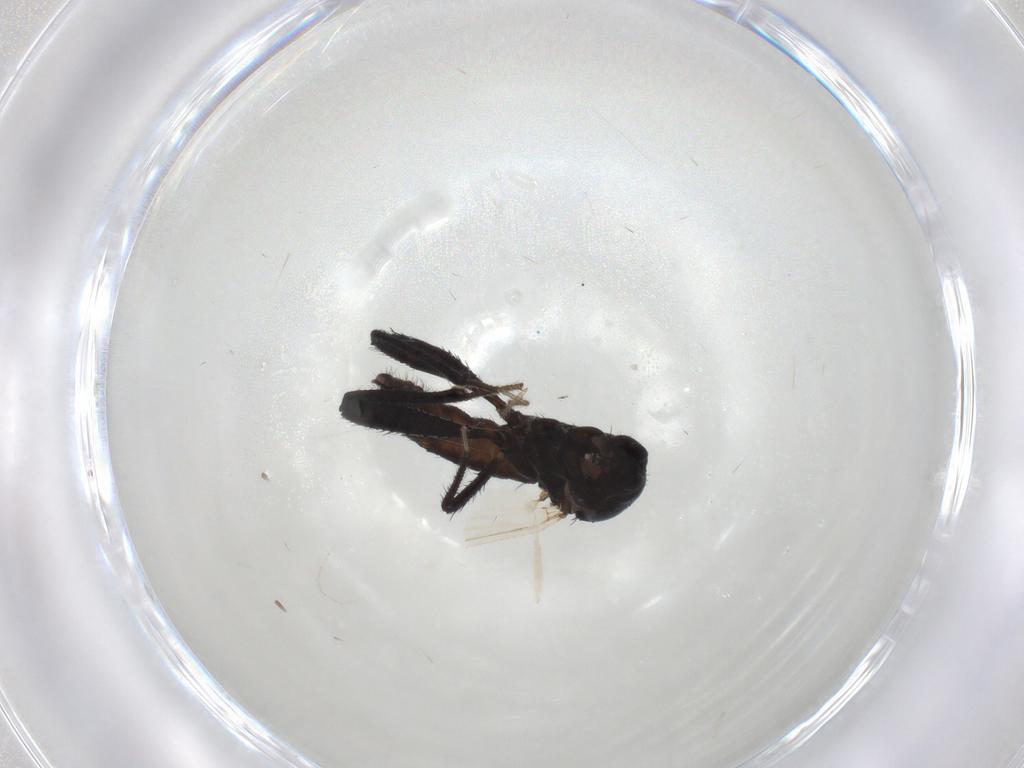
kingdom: Animalia
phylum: Arthropoda
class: Insecta
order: Diptera
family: Ceratopogonidae
